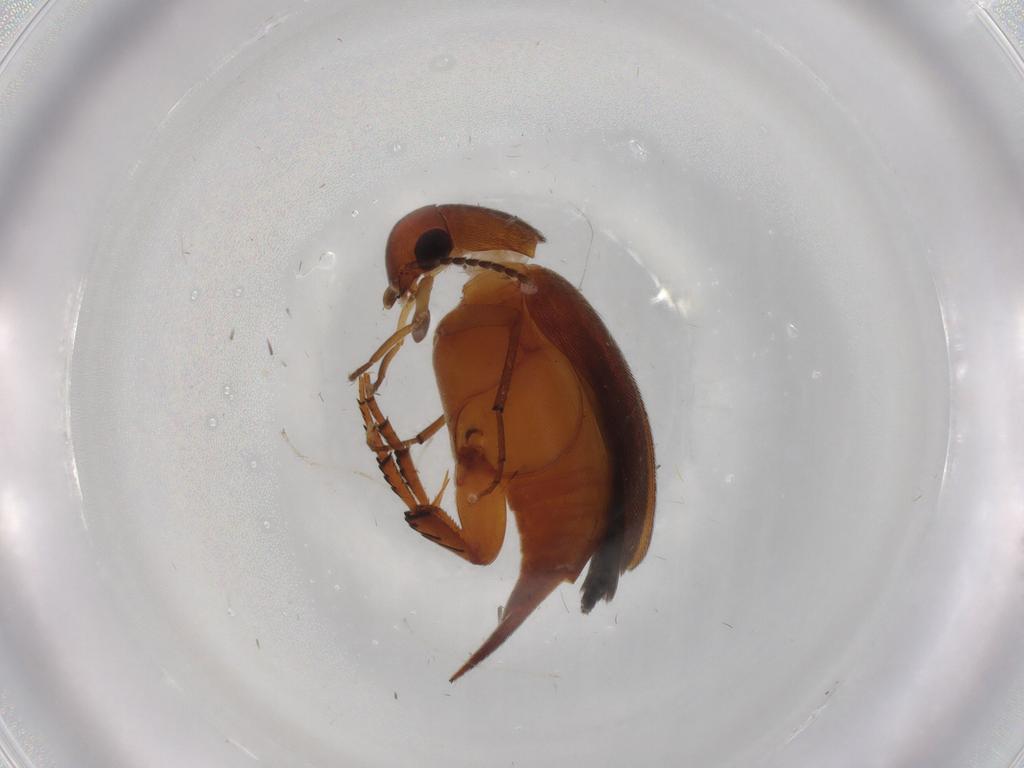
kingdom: Animalia
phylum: Arthropoda
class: Insecta
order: Coleoptera
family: Mordellidae
